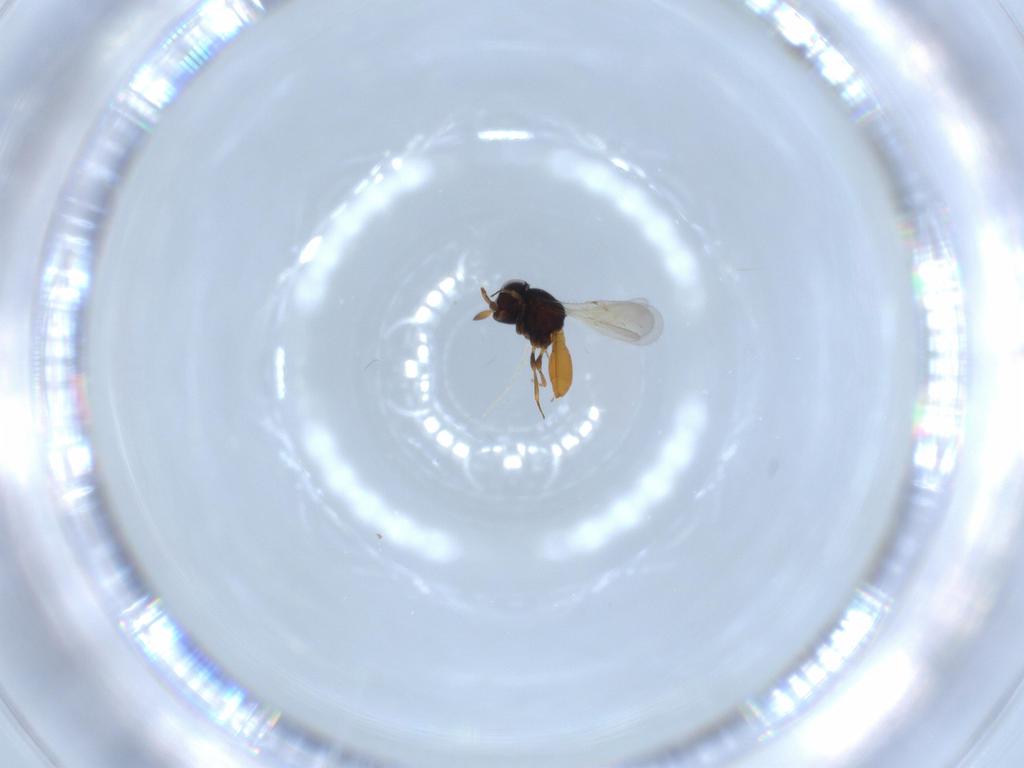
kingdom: Animalia
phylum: Arthropoda
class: Insecta
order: Hymenoptera
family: Scelionidae
